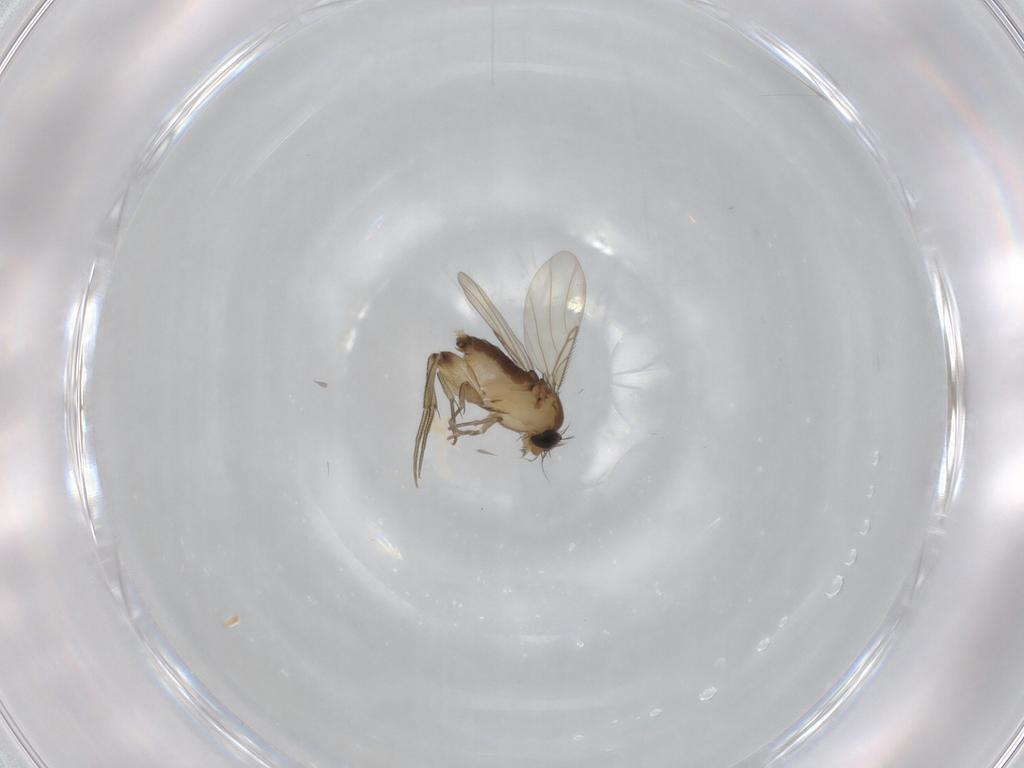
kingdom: Animalia
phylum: Arthropoda
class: Insecta
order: Diptera
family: Phoridae
